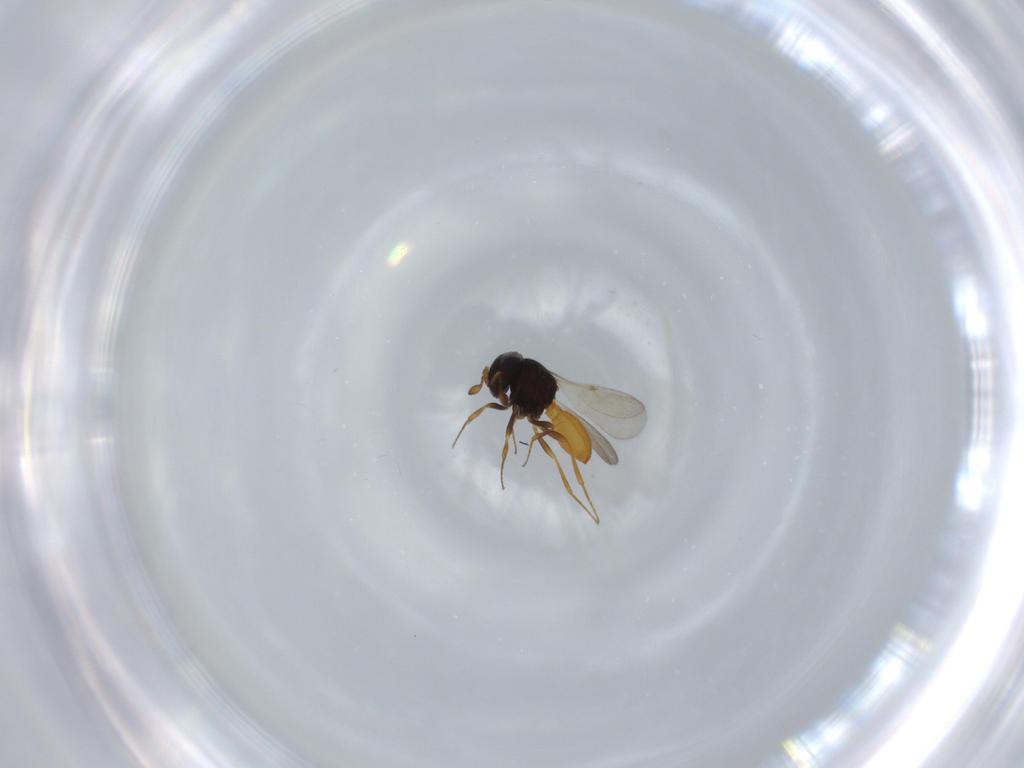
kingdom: Animalia
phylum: Arthropoda
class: Insecta
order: Hymenoptera
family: Scelionidae
